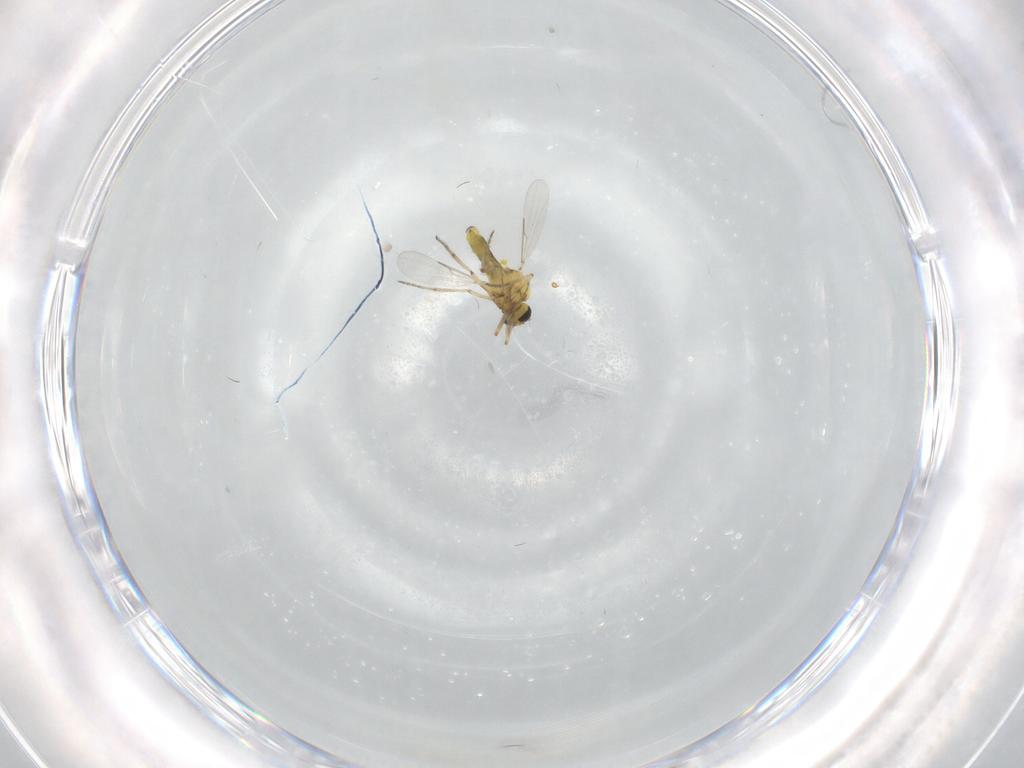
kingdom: Animalia
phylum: Arthropoda
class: Insecta
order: Diptera
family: Ceratopogonidae
